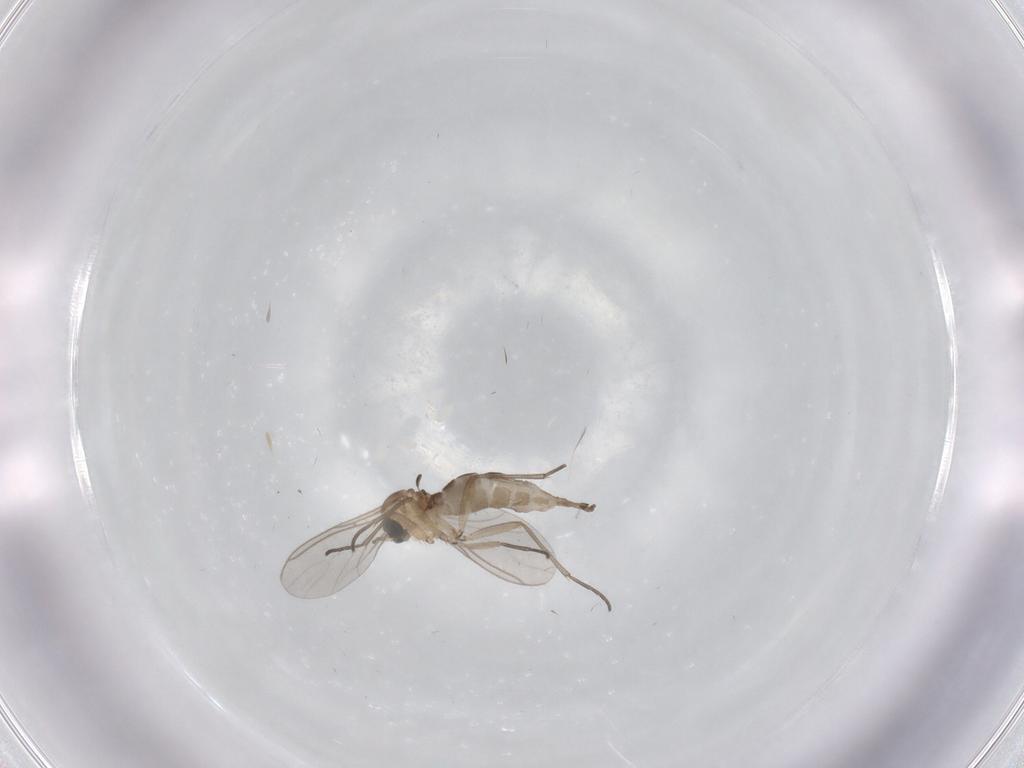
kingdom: Animalia
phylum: Arthropoda
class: Insecta
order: Diptera
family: Sciaridae
